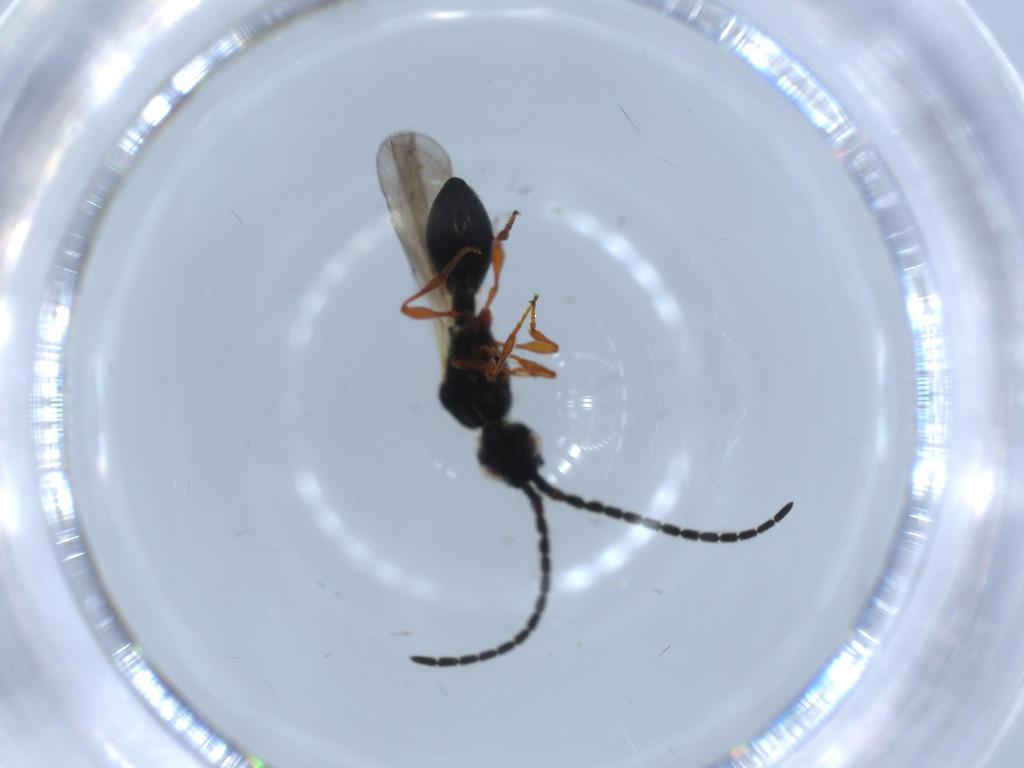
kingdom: Animalia
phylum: Arthropoda
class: Insecta
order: Hymenoptera
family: Diapriidae
